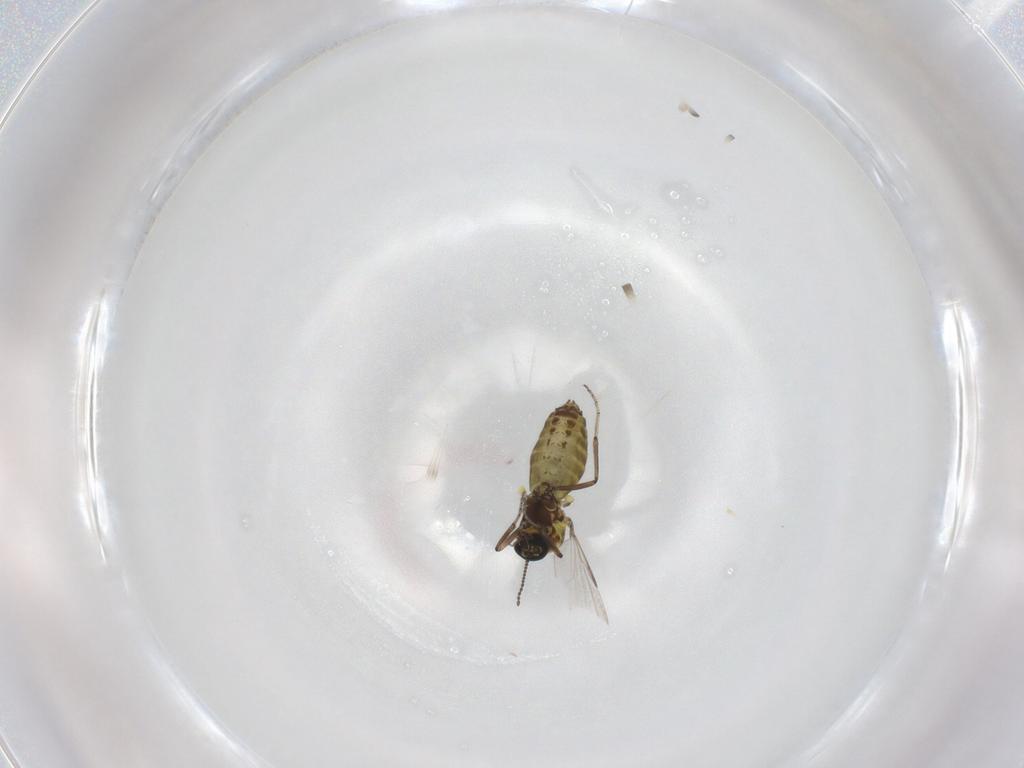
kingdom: Animalia
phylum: Arthropoda
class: Insecta
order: Diptera
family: Ceratopogonidae
